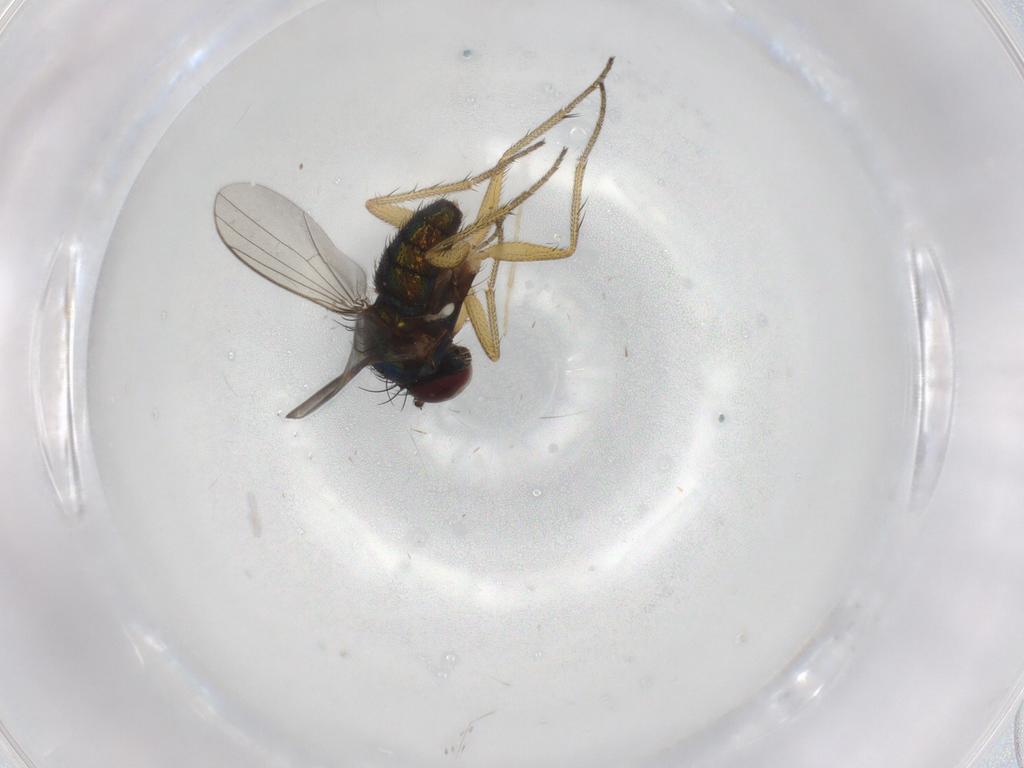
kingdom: Animalia
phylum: Arthropoda
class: Insecta
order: Diptera
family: Dolichopodidae
